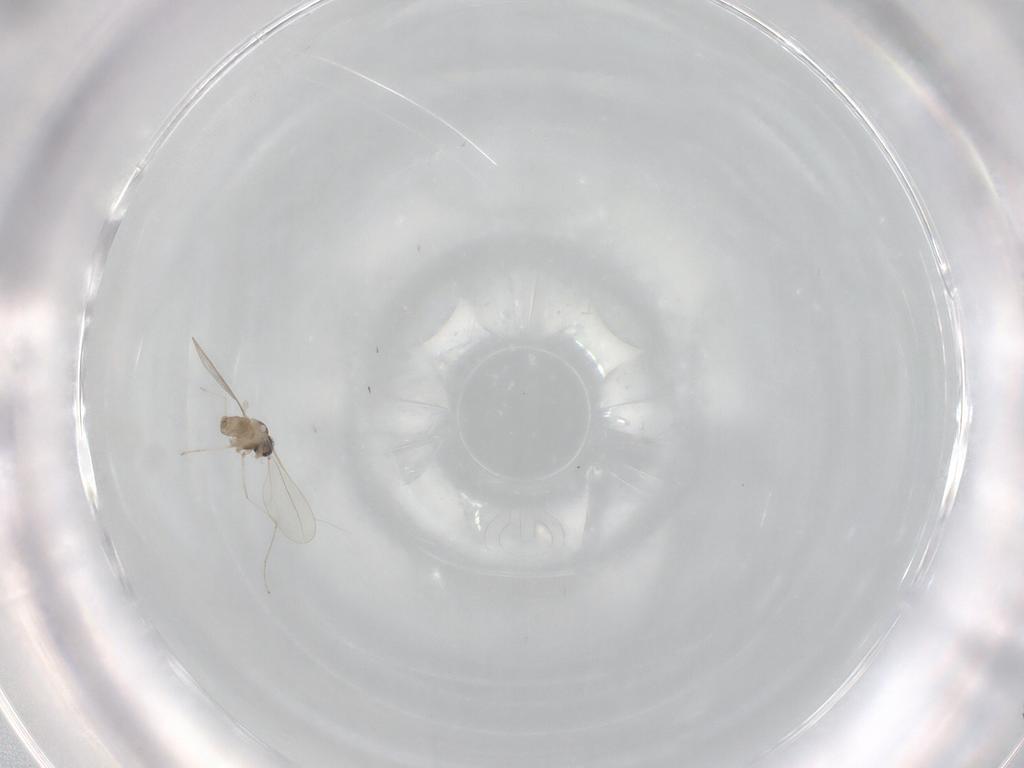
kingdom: Animalia
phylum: Arthropoda
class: Insecta
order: Diptera
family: Cecidomyiidae
